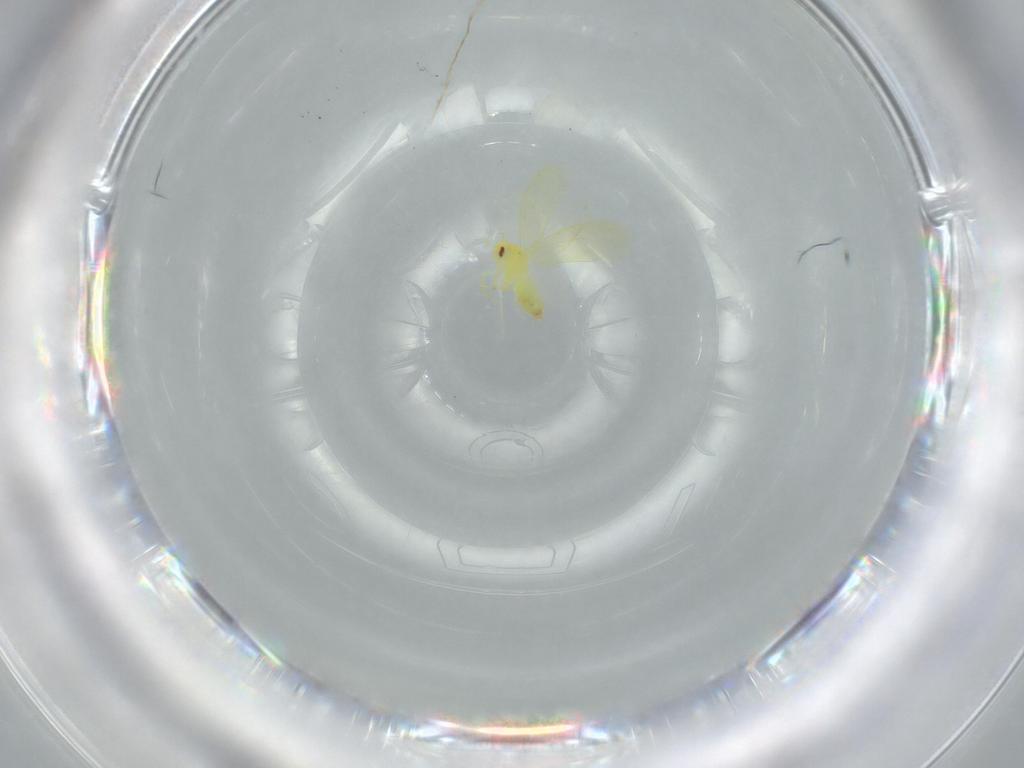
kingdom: Animalia
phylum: Arthropoda
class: Insecta
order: Hemiptera
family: Aleyrodidae
